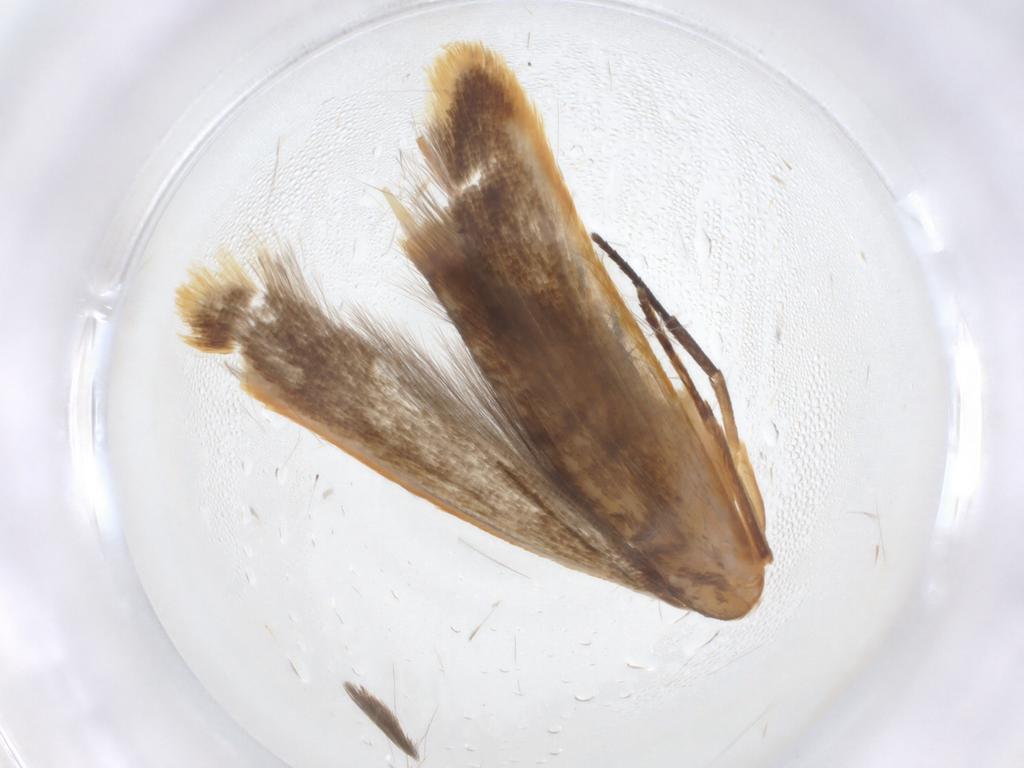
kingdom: Animalia
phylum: Arthropoda
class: Insecta
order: Lepidoptera
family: Elachistidae
